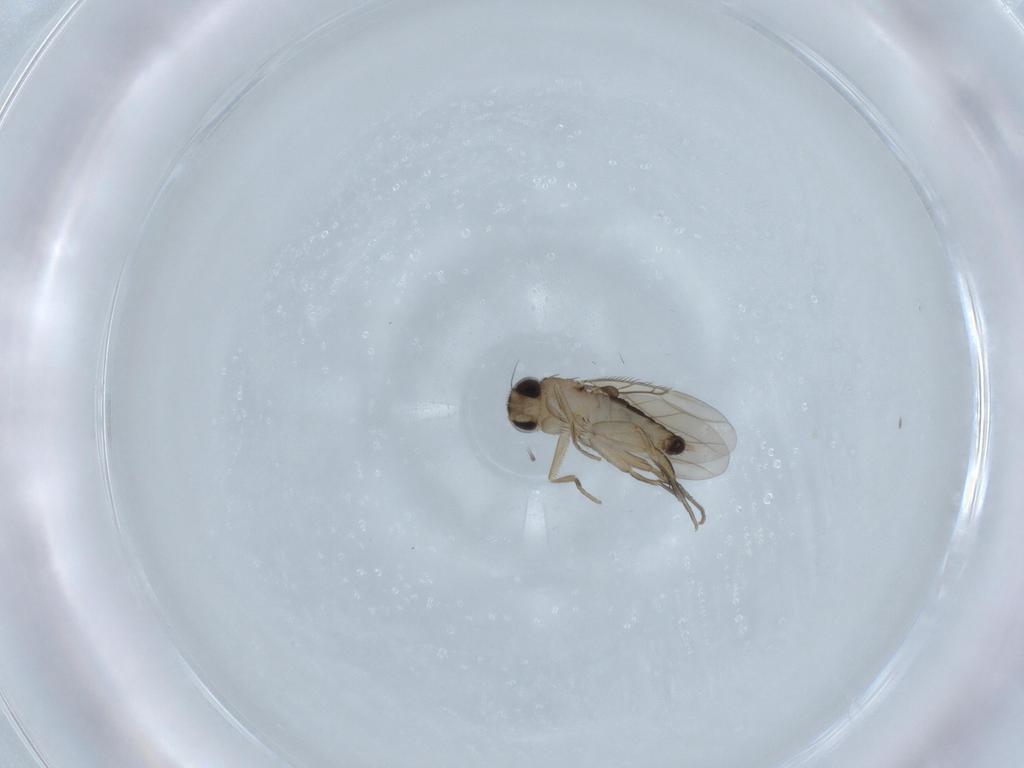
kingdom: Animalia
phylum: Arthropoda
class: Insecta
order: Diptera
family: Phoridae
